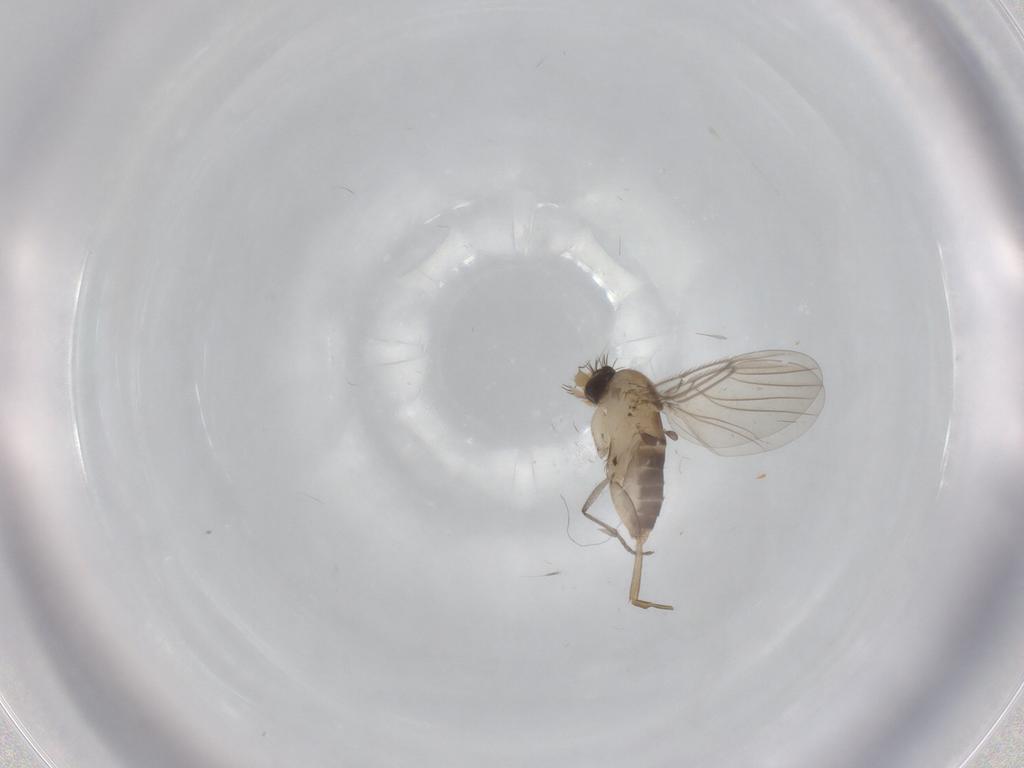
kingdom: Animalia
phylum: Arthropoda
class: Insecta
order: Diptera
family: Phoridae
